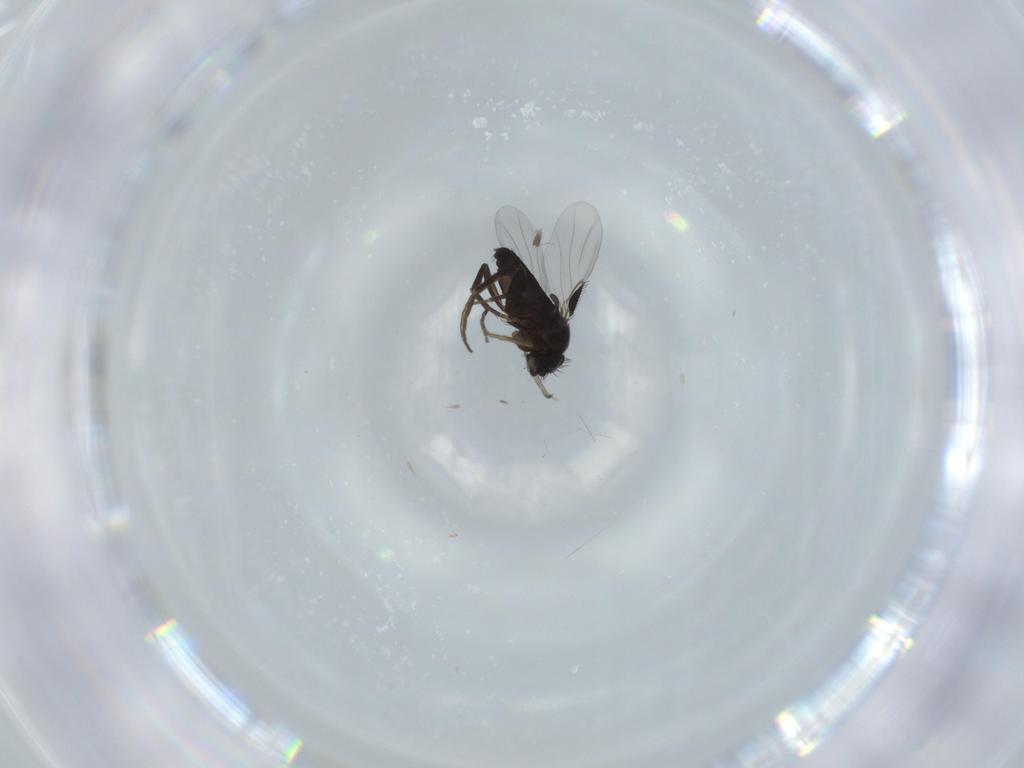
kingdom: Animalia
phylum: Arthropoda
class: Insecta
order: Diptera
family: Phoridae
